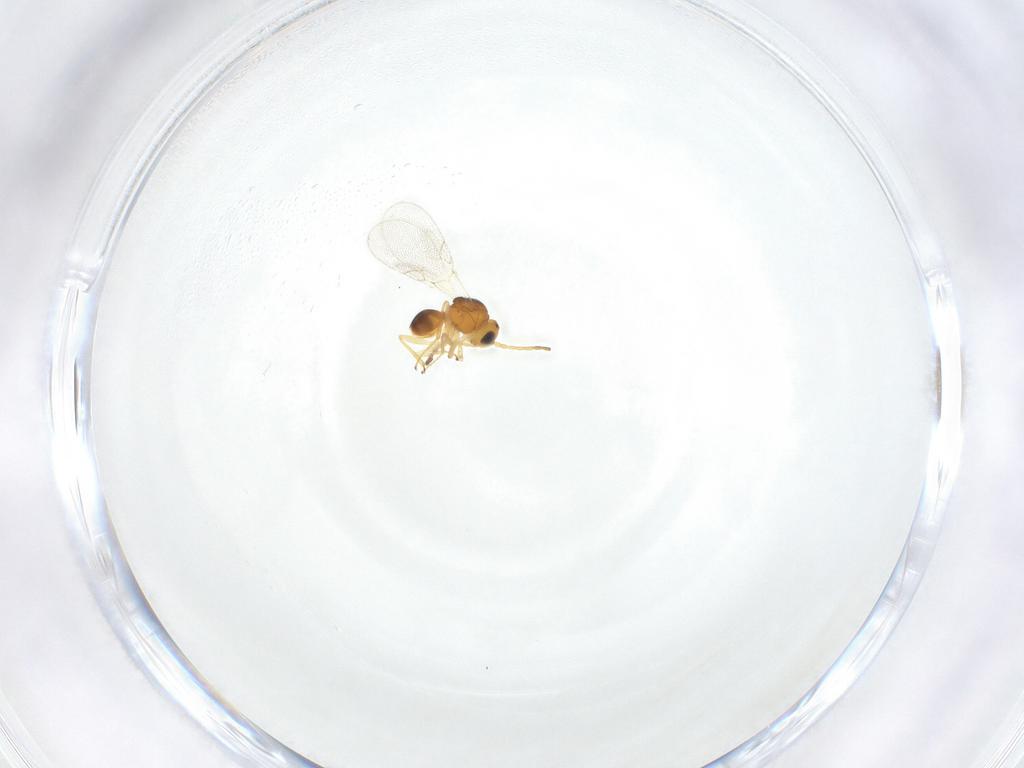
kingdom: Animalia
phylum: Arthropoda
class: Insecta
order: Hymenoptera
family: Figitidae
